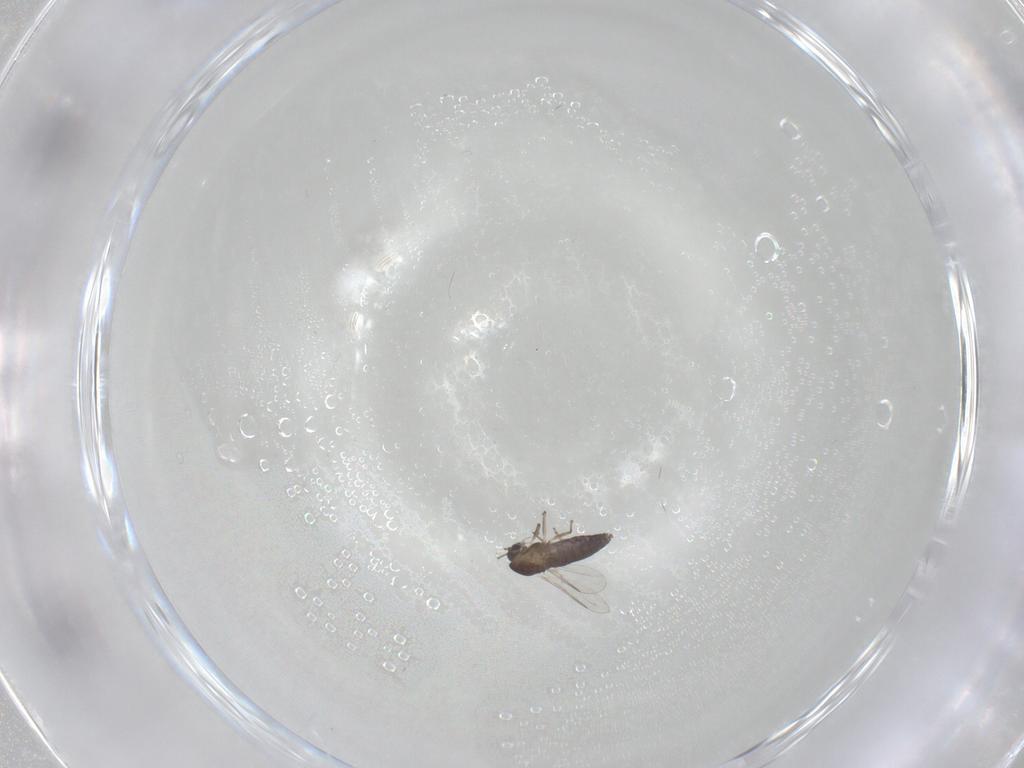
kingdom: Animalia
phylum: Arthropoda
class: Insecta
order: Diptera
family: Chironomidae
